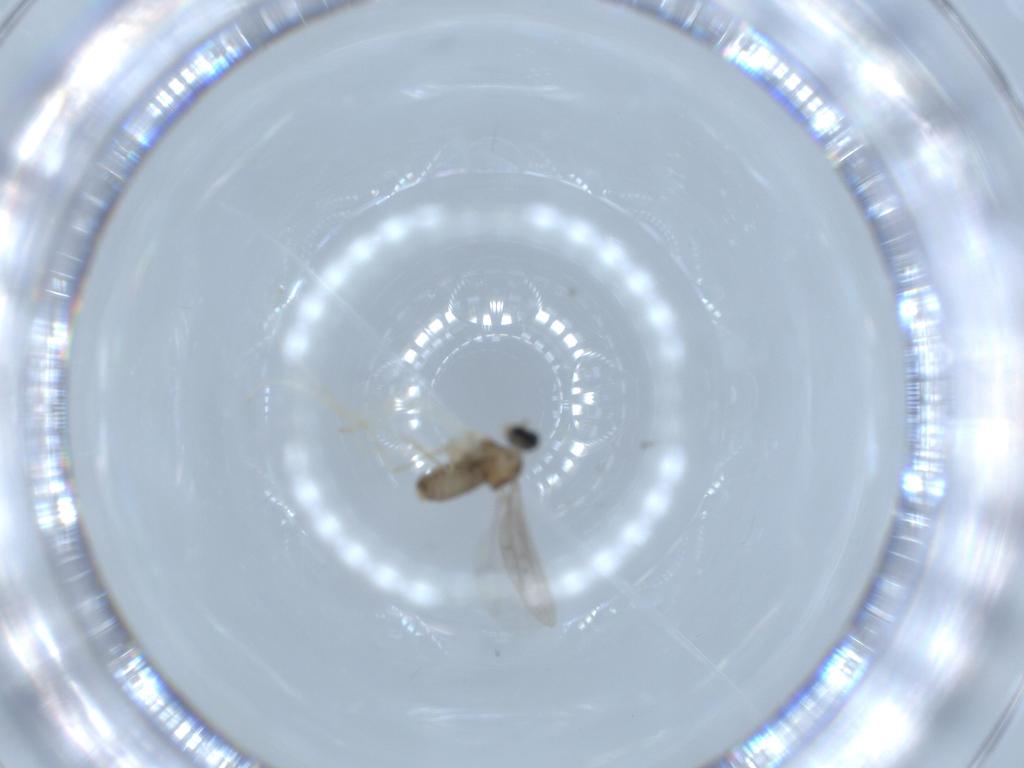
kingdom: Animalia
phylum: Arthropoda
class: Insecta
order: Diptera
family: Cecidomyiidae
